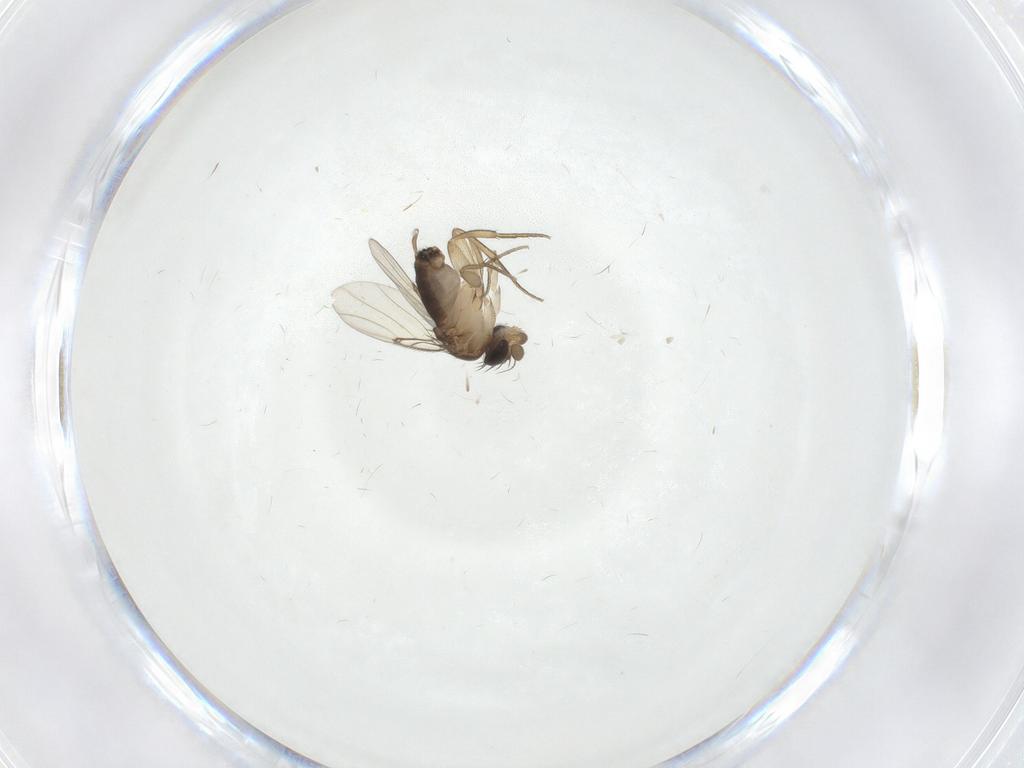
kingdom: Animalia
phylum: Arthropoda
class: Insecta
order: Diptera
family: Phoridae
